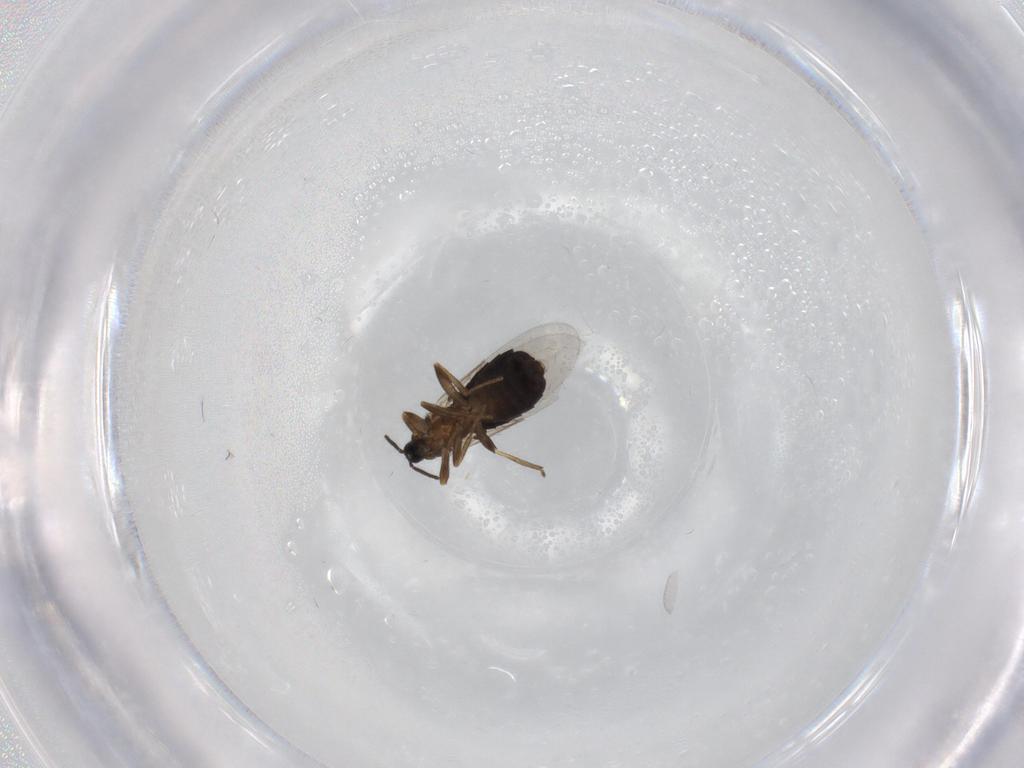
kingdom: Animalia
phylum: Arthropoda
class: Insecta
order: Diptera
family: Scatopsidae
